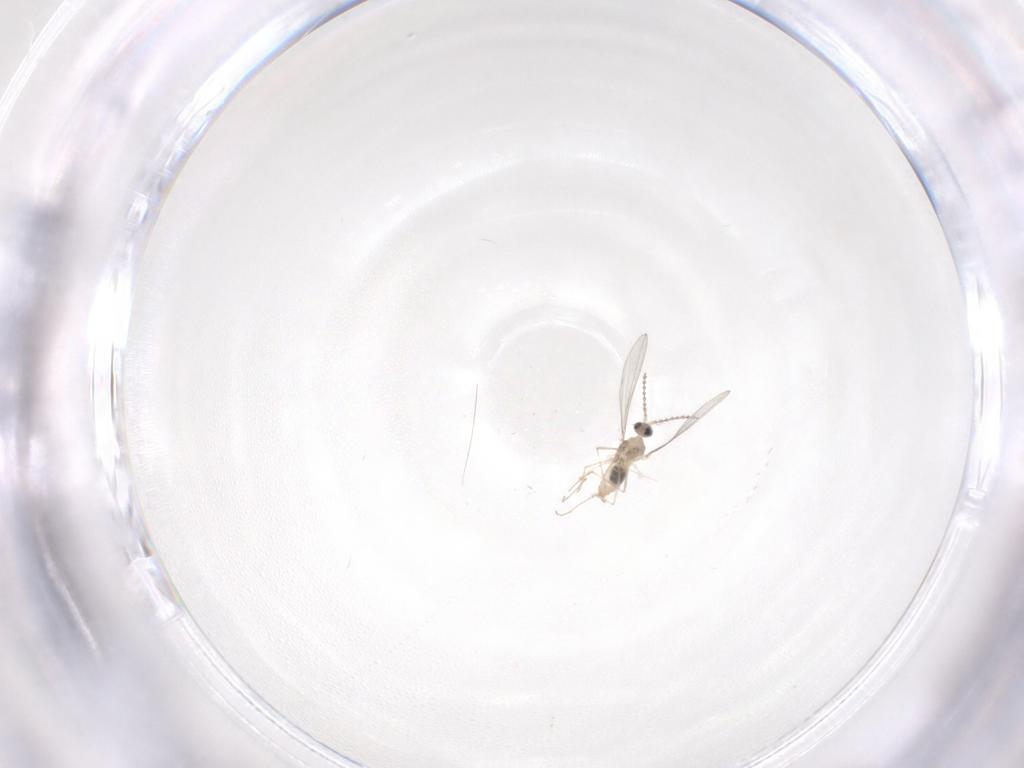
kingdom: Animalia
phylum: Arthropoda
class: Insecta
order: Diptera
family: Cecidomyiidae
